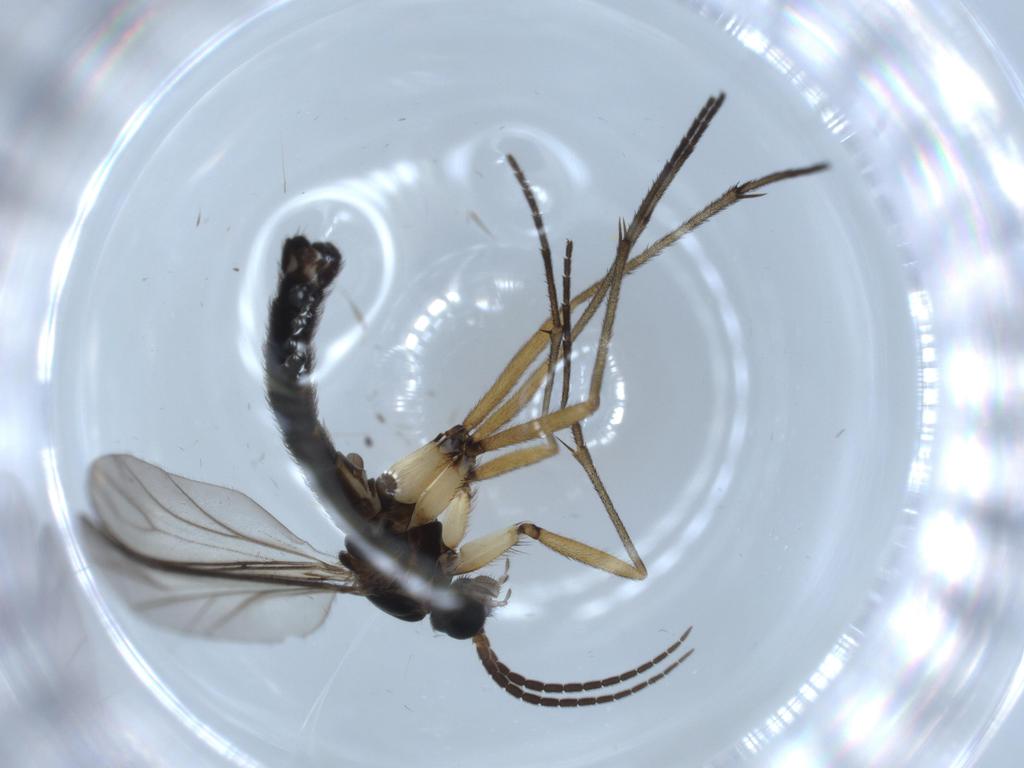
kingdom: Animalia
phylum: Arthropoda
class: Insecta
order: Diptera
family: Sciaridae
